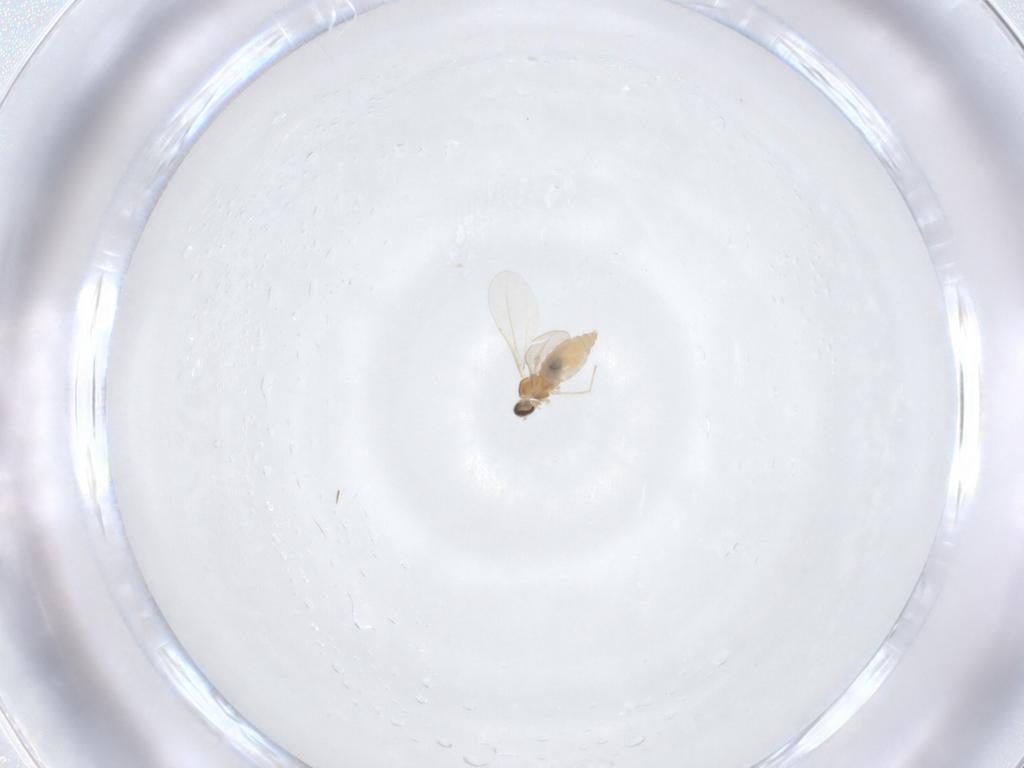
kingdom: Animalia
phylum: Arthropoda
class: Insecta
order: Diptera
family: Cecidomyiidae
